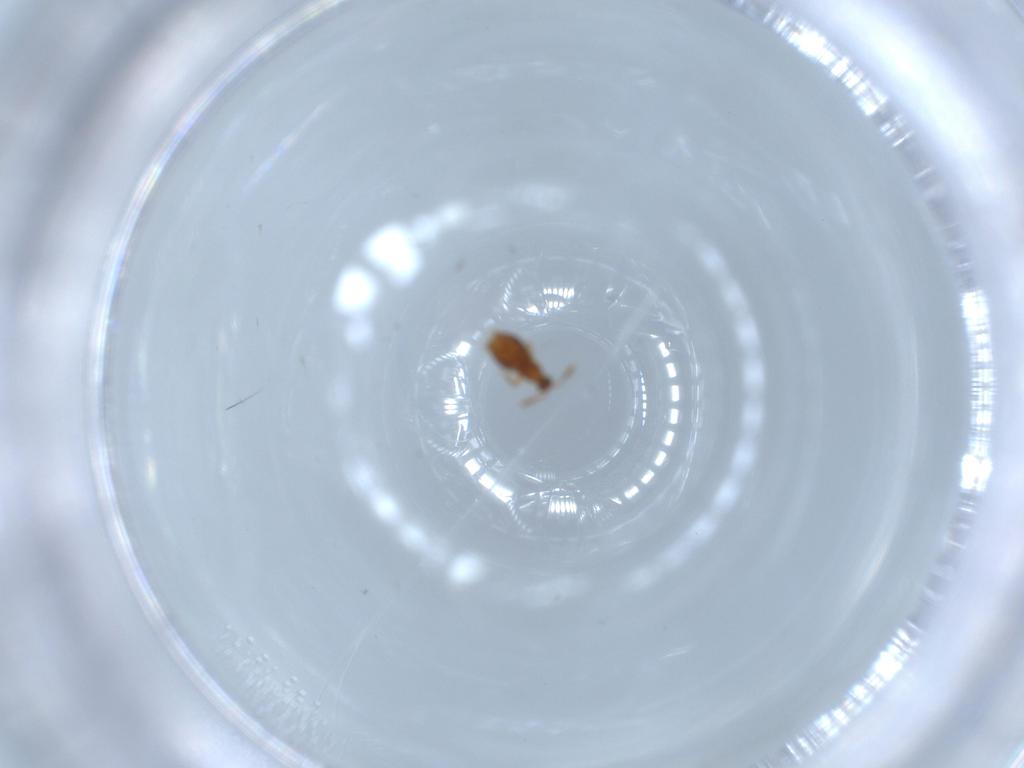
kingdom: Animalia
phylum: Arthropoda
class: Insecta
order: Coleoptera
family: Staphylinidae
